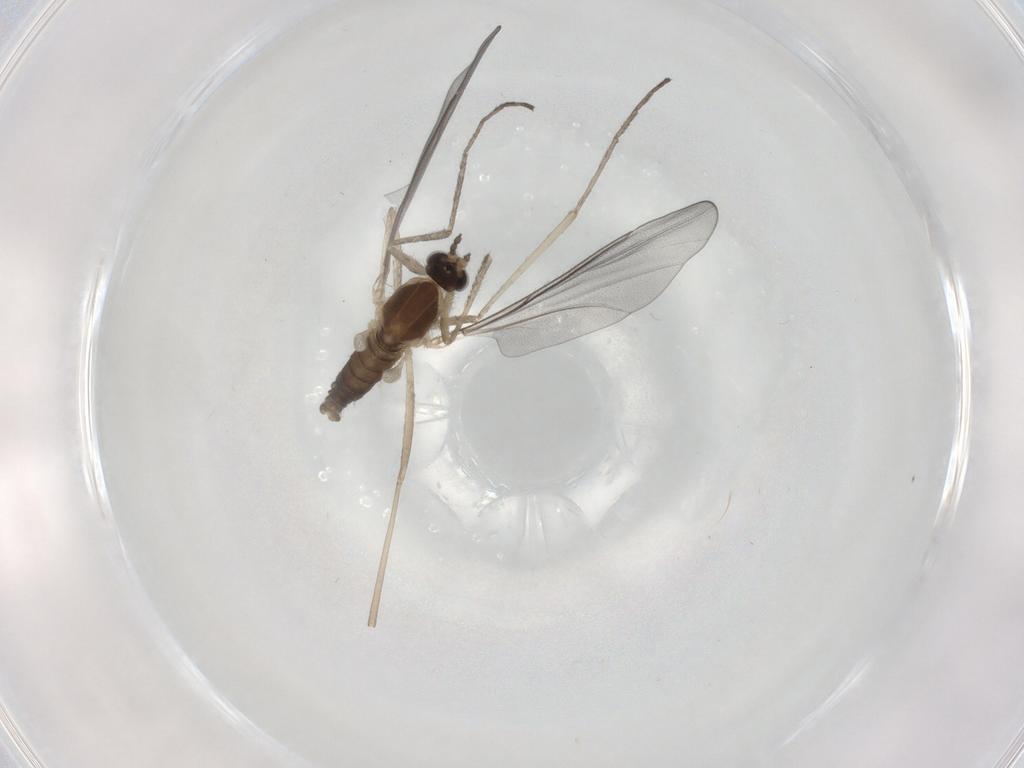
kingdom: Animalia
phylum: Arthropoda
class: Insecta
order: Diptera
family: Cecidomyiidae
